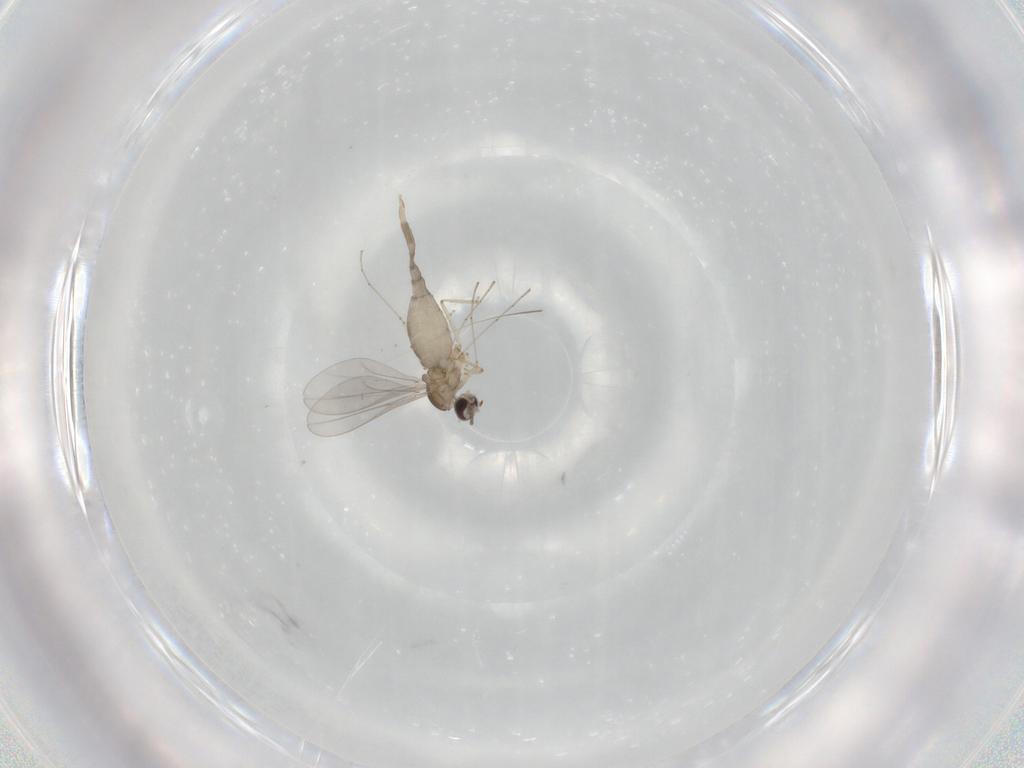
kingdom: Animalia
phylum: Arthropoda
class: Insecta
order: Diptera
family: Cecidomyiidae
